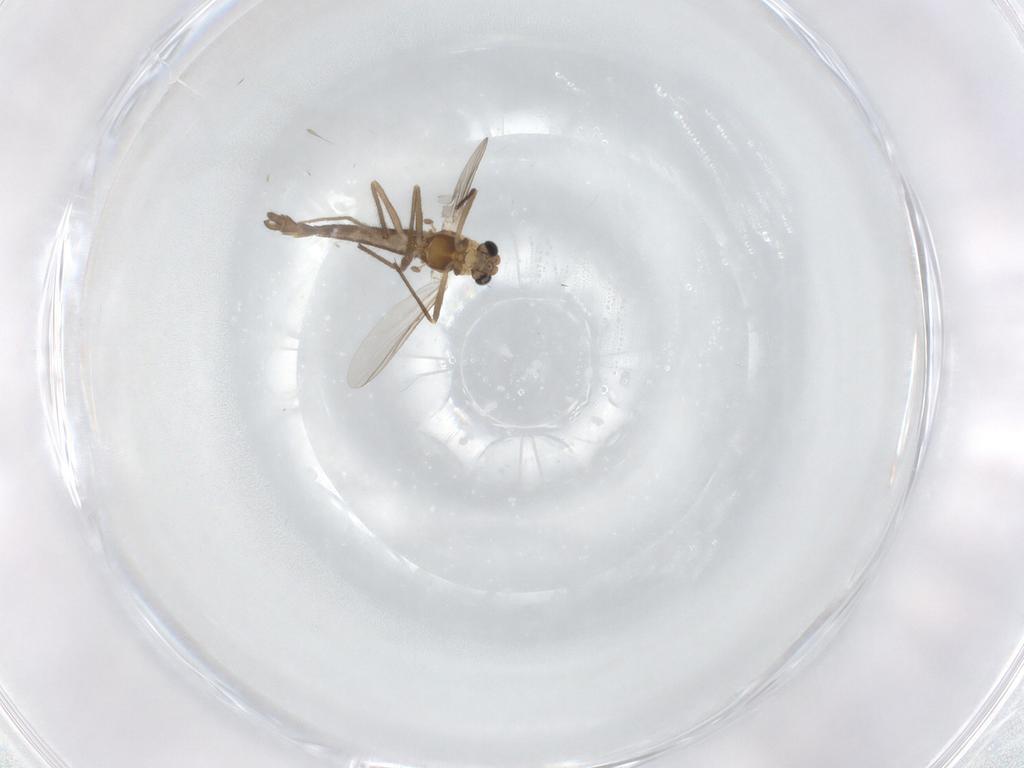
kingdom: Animalia
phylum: Arthropoda
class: Insecta
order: Diptera
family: Chironomidae
